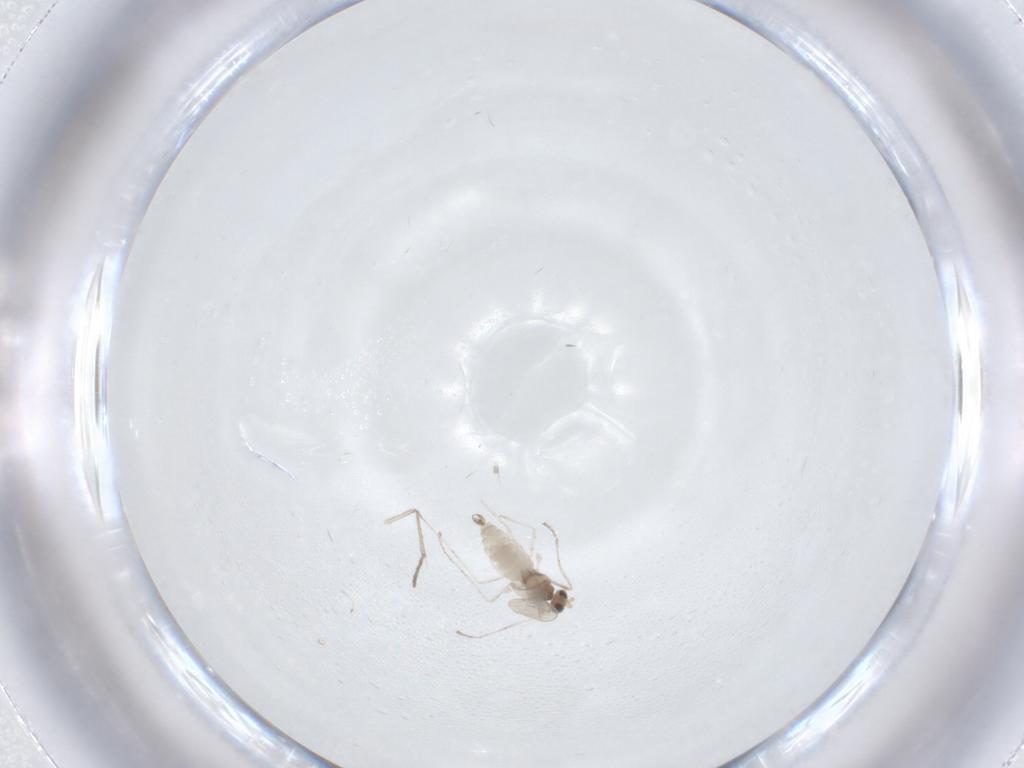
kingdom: Animalia
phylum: Arthropoda
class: Insecta
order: Diptera
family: Cecidomyiidae
